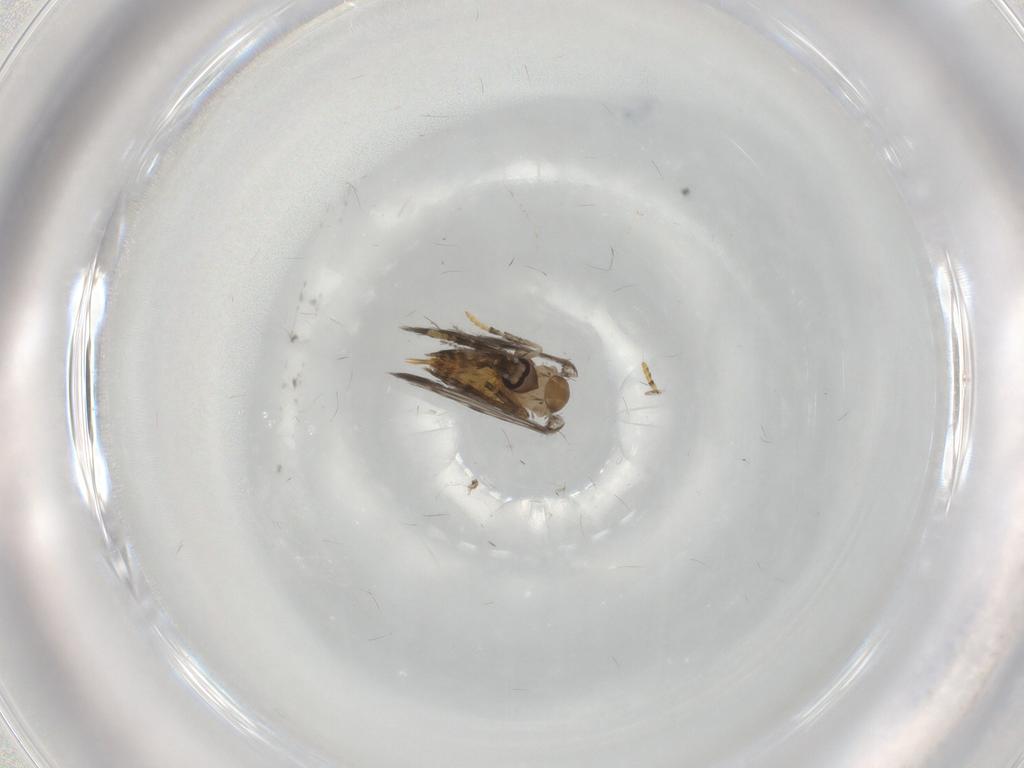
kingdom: Animalia
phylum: Arthropoda
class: Insecta
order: Diptera
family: Psychodidae
